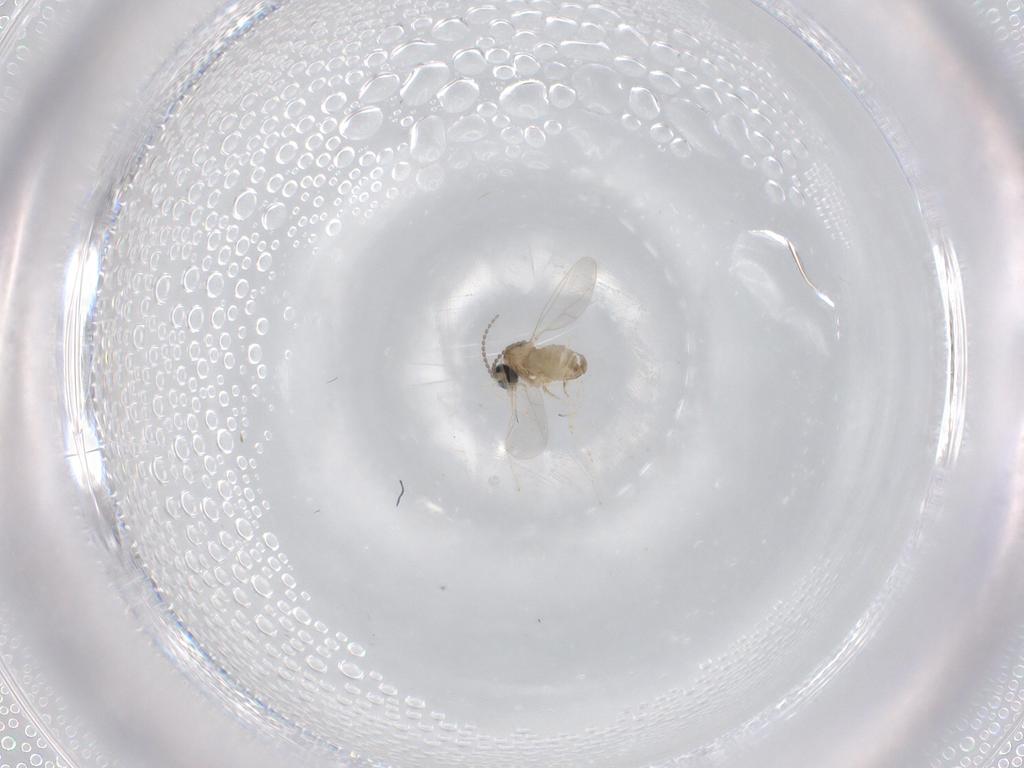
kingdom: Animalia
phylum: Arthropoda
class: Insecta
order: Diptera
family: Cecidomyiidae
